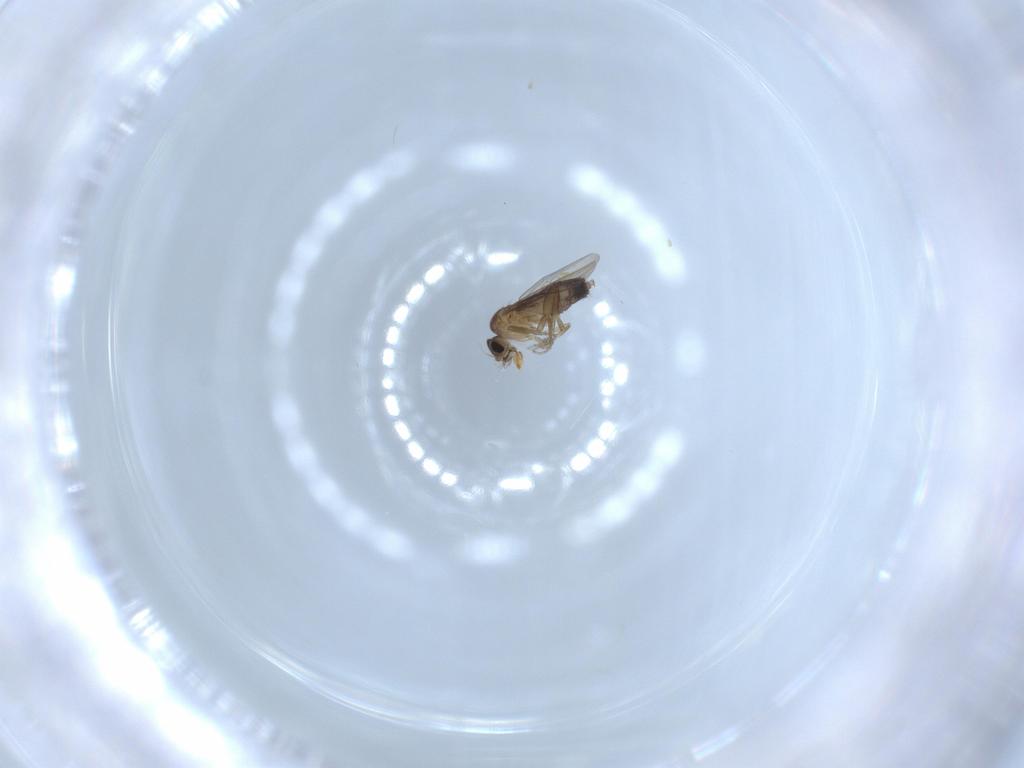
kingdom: Animalia
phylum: Arthropoda
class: Insecta
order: Diptera
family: Phoridae
